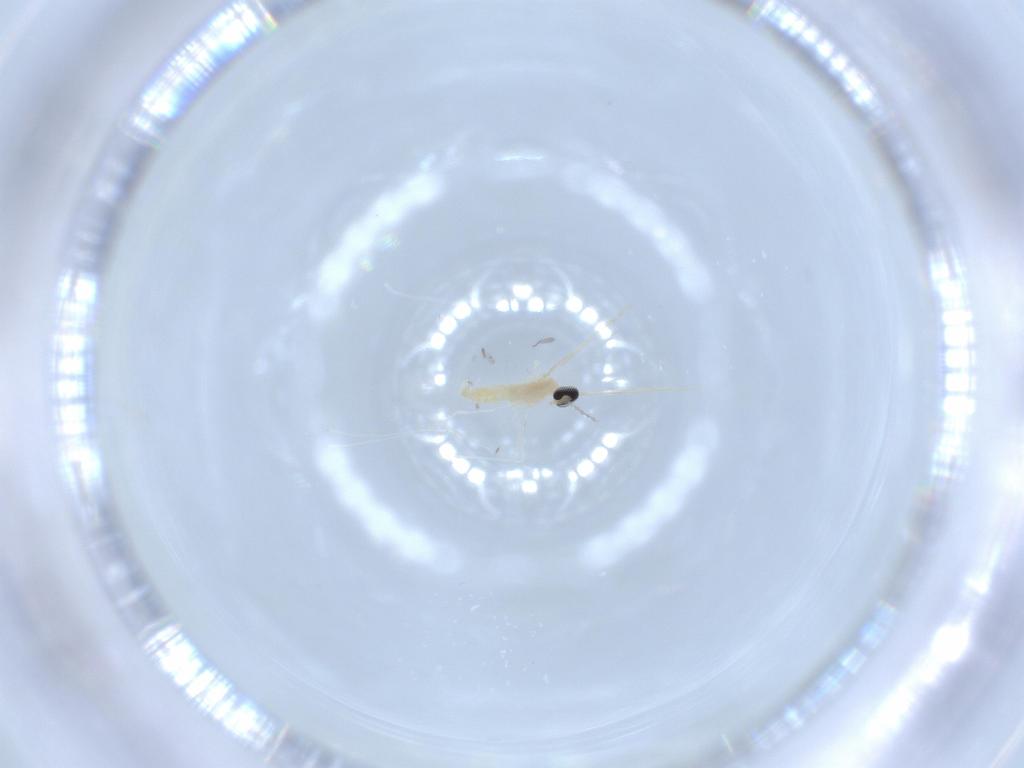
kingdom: Animalia
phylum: Arthropoda
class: Insecta
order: Diptera
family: Cecidomyiidae
